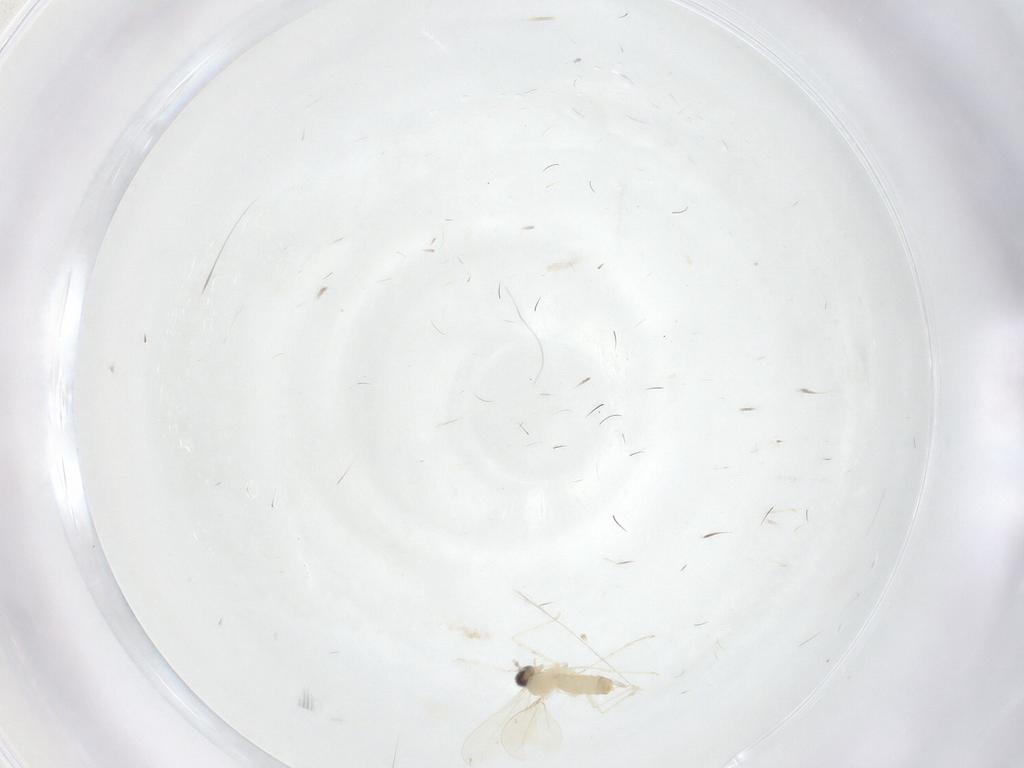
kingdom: Animalia
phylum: Arthropoda
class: Insecta
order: Diptera
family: Cecidomyiidae
